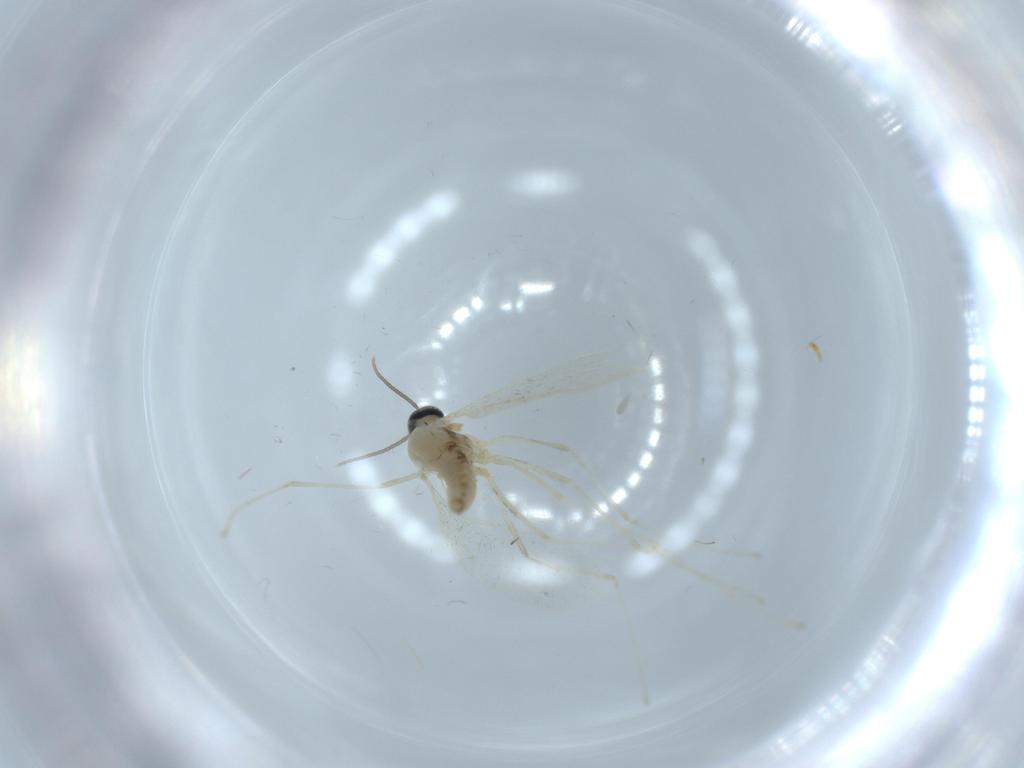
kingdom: Animalia
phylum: Arthropoda
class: Insecta
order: Diptera
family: Cecidomyiidae
